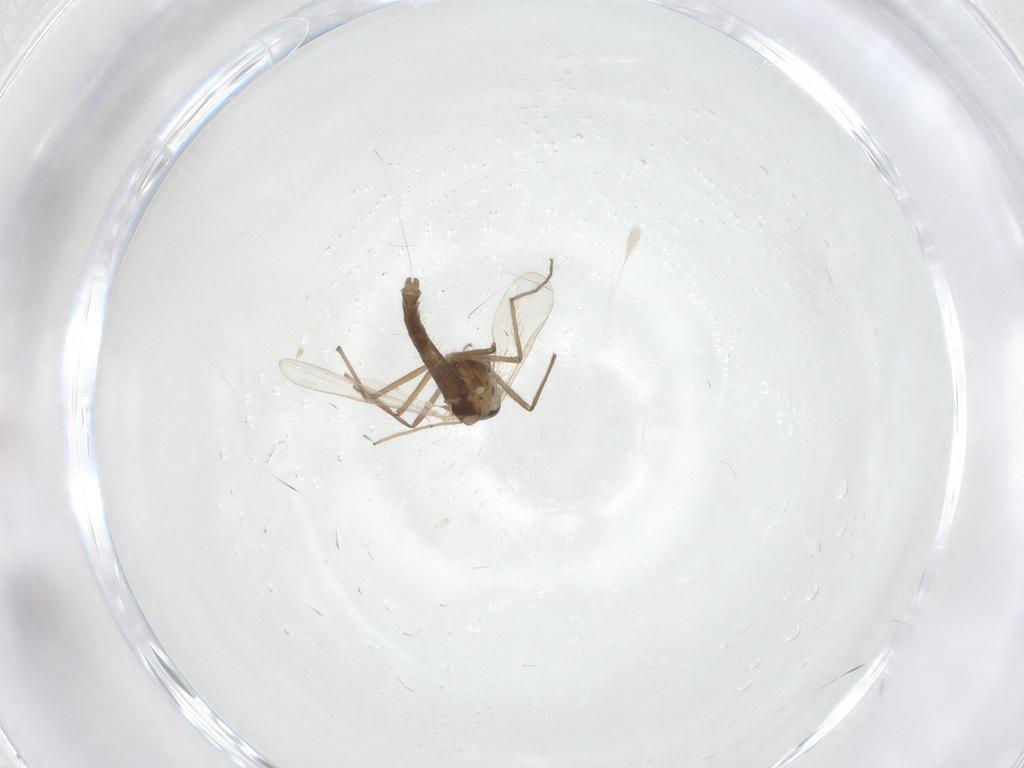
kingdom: Animalia
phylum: Arthropoda
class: Insecta
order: Diptera
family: Chironomidae
